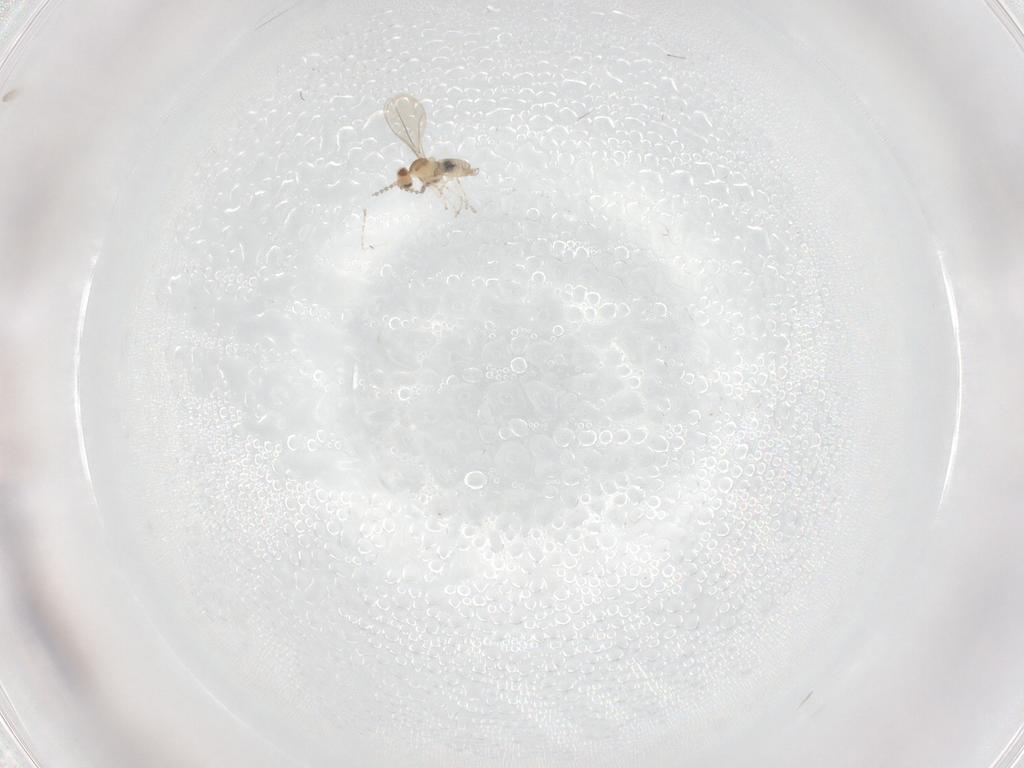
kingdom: Animalia
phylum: Arthropoda
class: Insecta
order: Diptera
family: Cecidomyiidae
